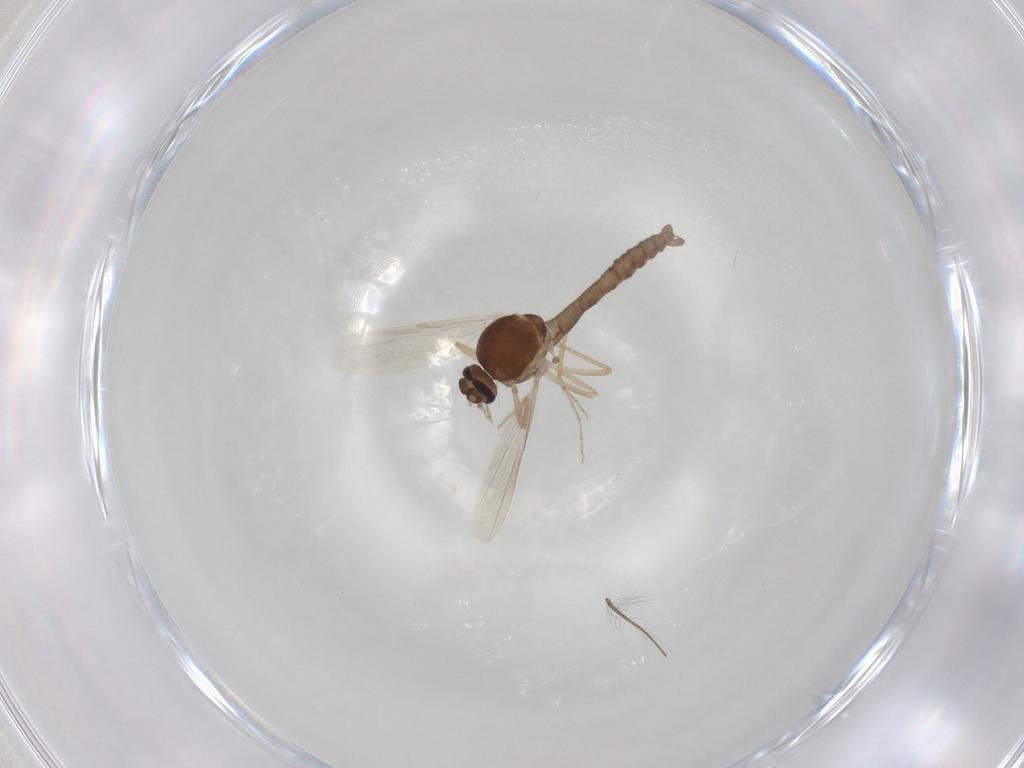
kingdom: Animalia
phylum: Arthropoda
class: Insecta
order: Diptera
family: Ceratopogonidae
